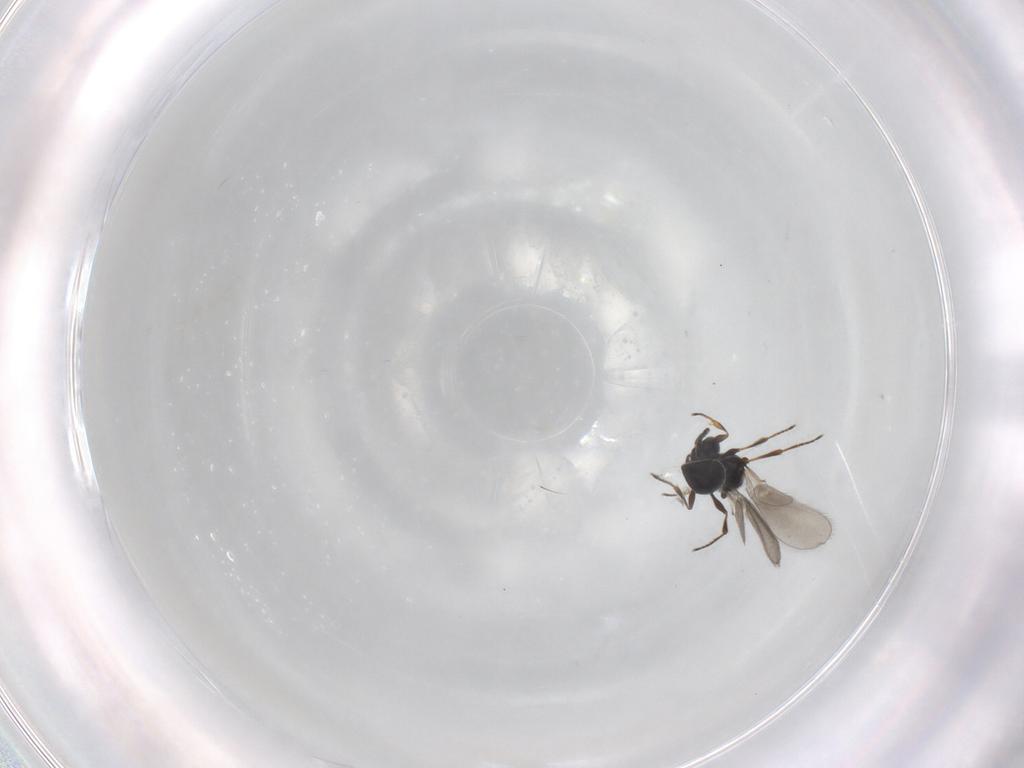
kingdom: Animalia
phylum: Arthropoda
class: Insecta
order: Hymenoptera
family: Platygastridae
